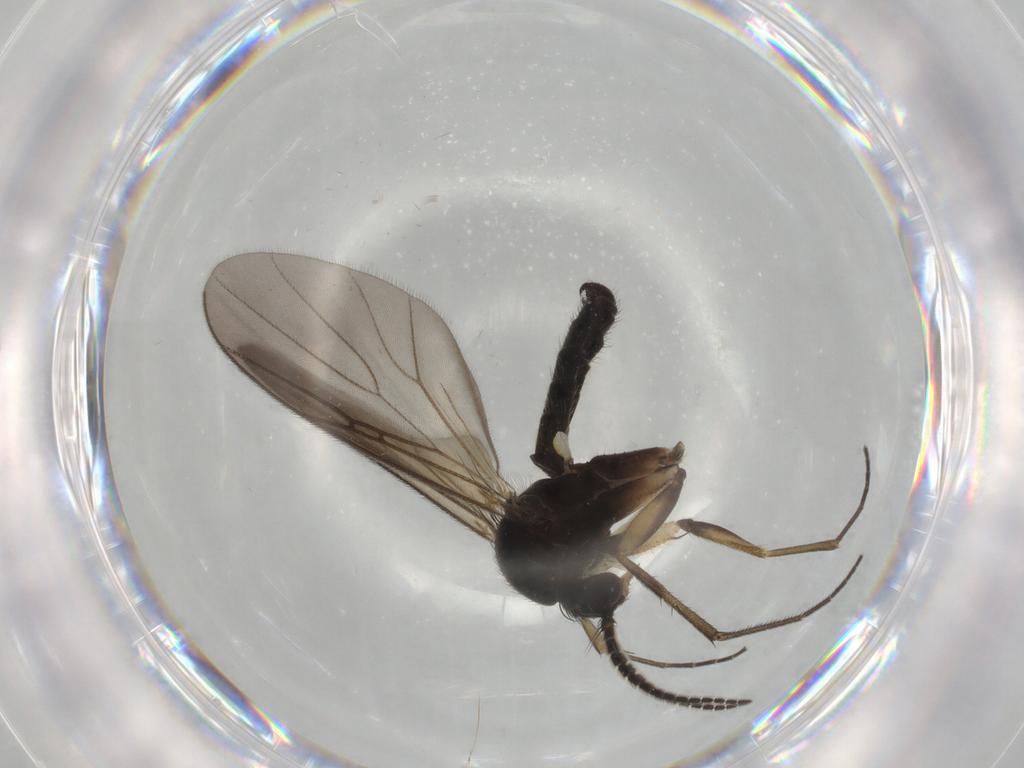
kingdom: Animalia
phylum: Arthropoda
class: Insecta
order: Diptera
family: Mycetophilidae
